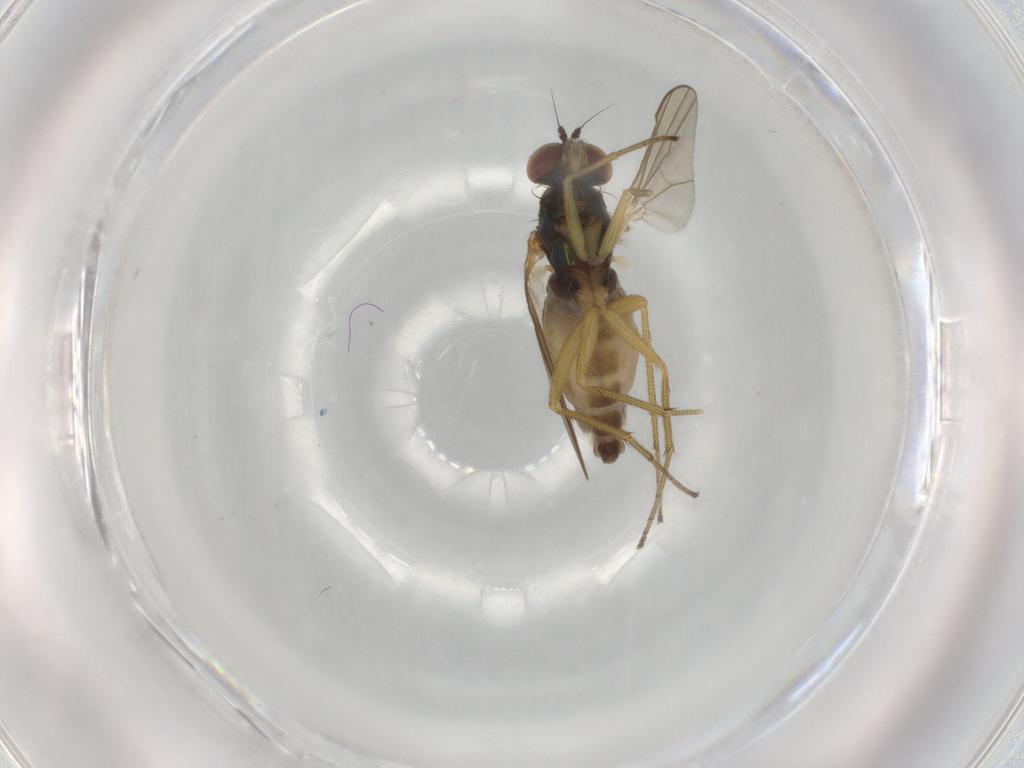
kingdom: Animalia
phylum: Arthropoda
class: Insecta
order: Diptera
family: Dolichopodidae
